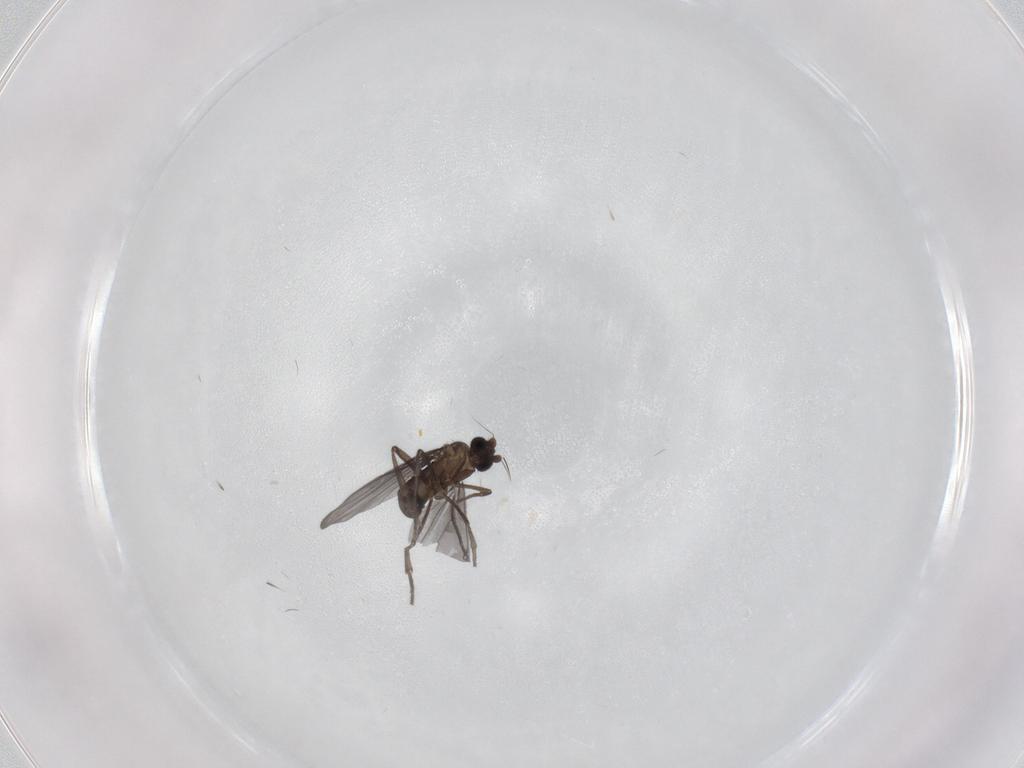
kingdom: Animalia
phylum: Arthropoda
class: Insecta
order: Diptera
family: Phoridae
